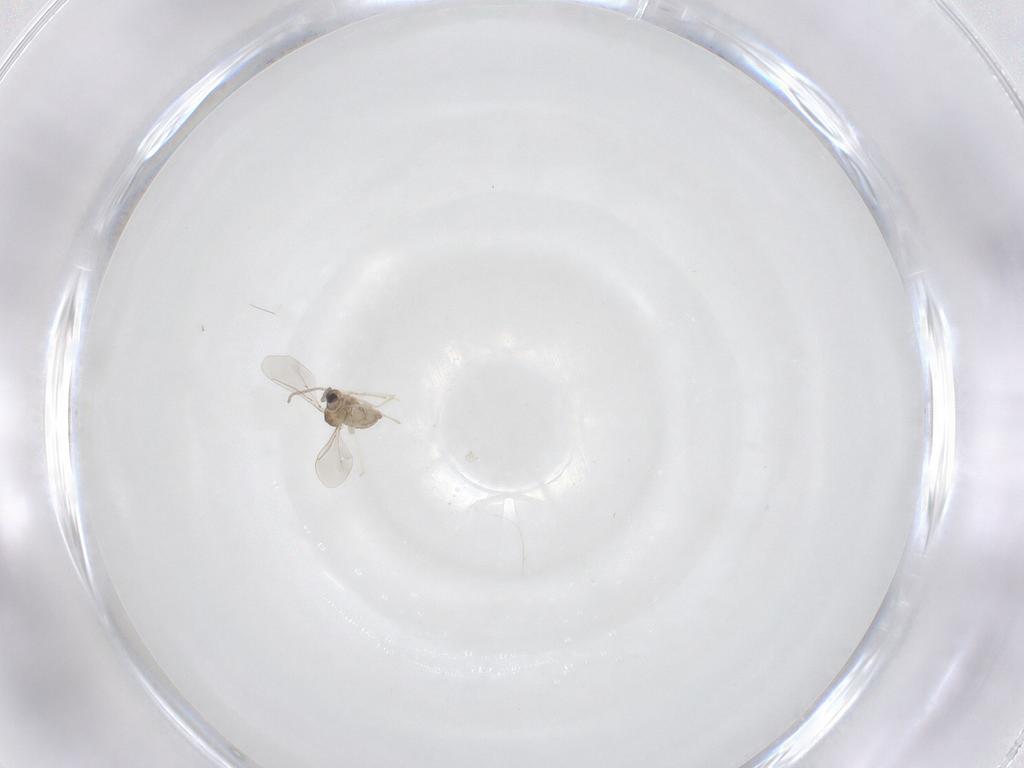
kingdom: Animalia
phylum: Arthropoda
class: Insecta
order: Diptera
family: Cecidomyiidae
